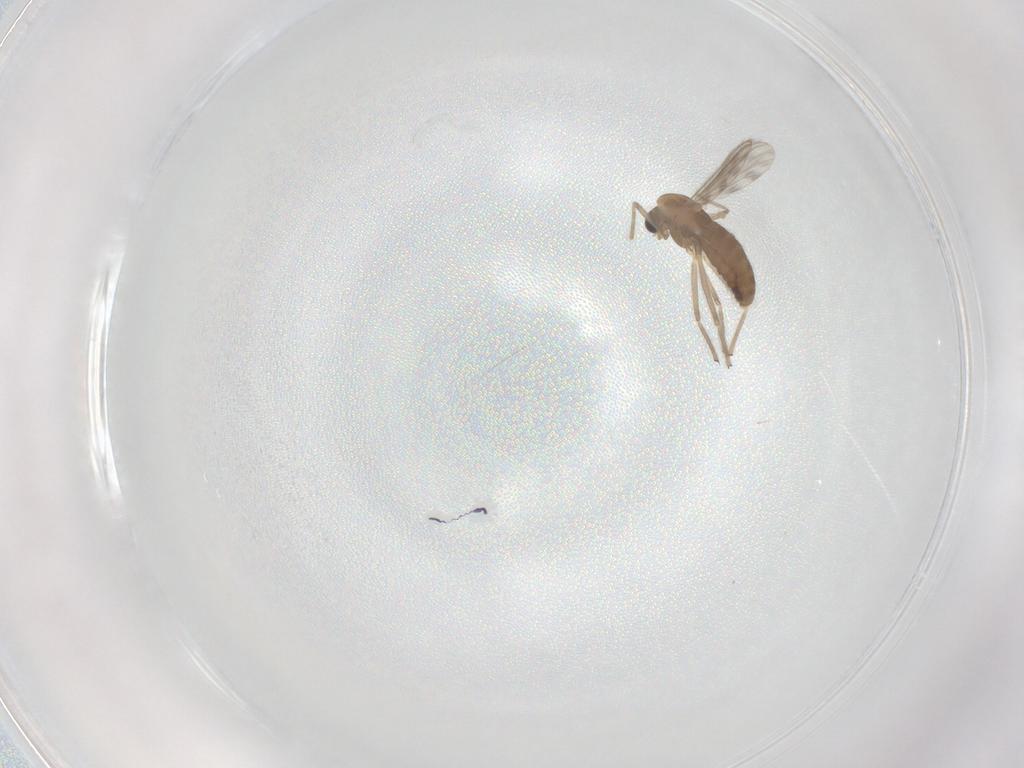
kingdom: Animalia
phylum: Arthropoda
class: Insecta
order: Diptera
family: Chironomidae
